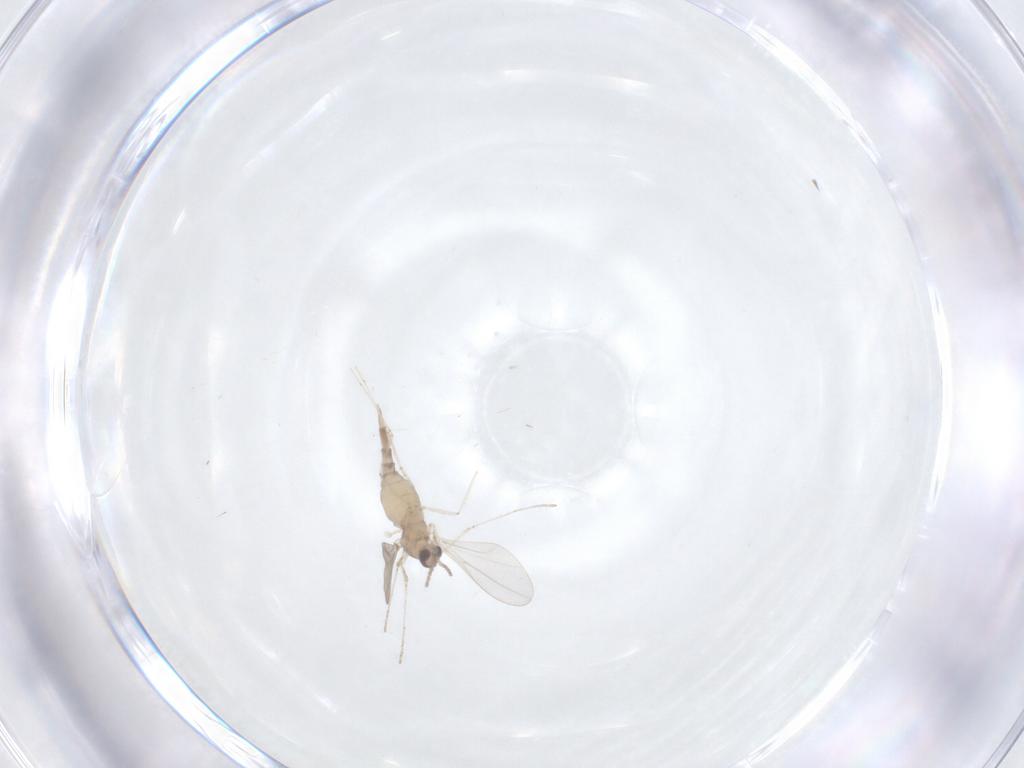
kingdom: Animalia
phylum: Arthropoda
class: Insecta
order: Diptera
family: Cecidomyiidae
